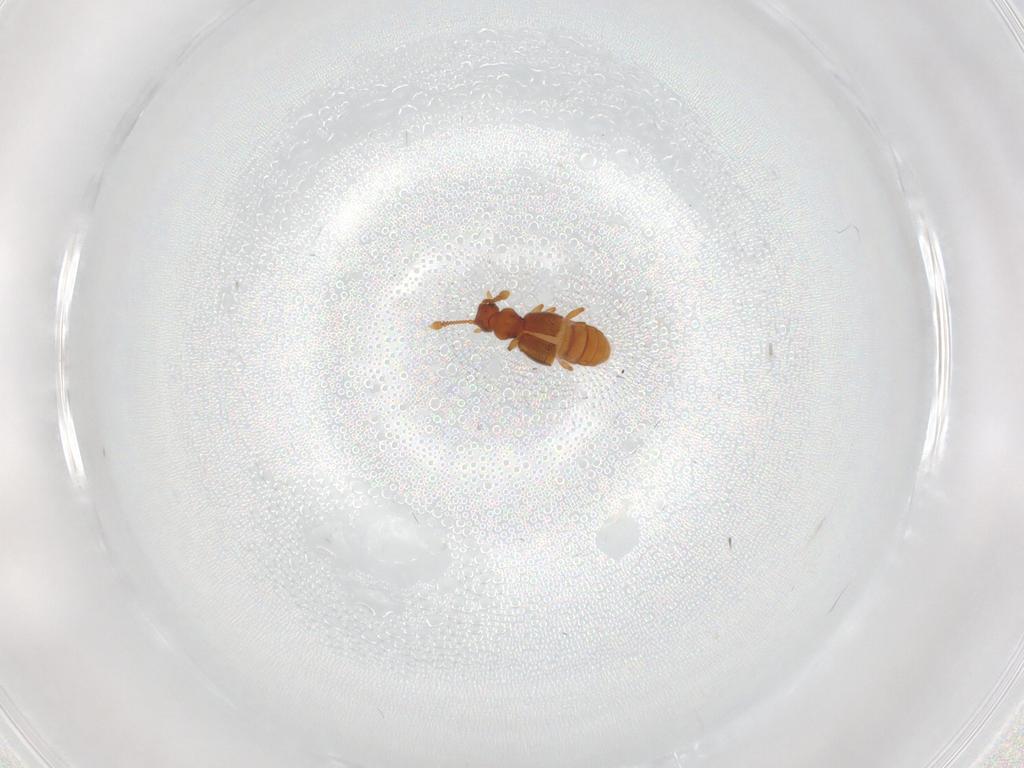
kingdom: Animalia
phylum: Arthropoda
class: Insecta
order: Coleoptera
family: Staphylinidae
